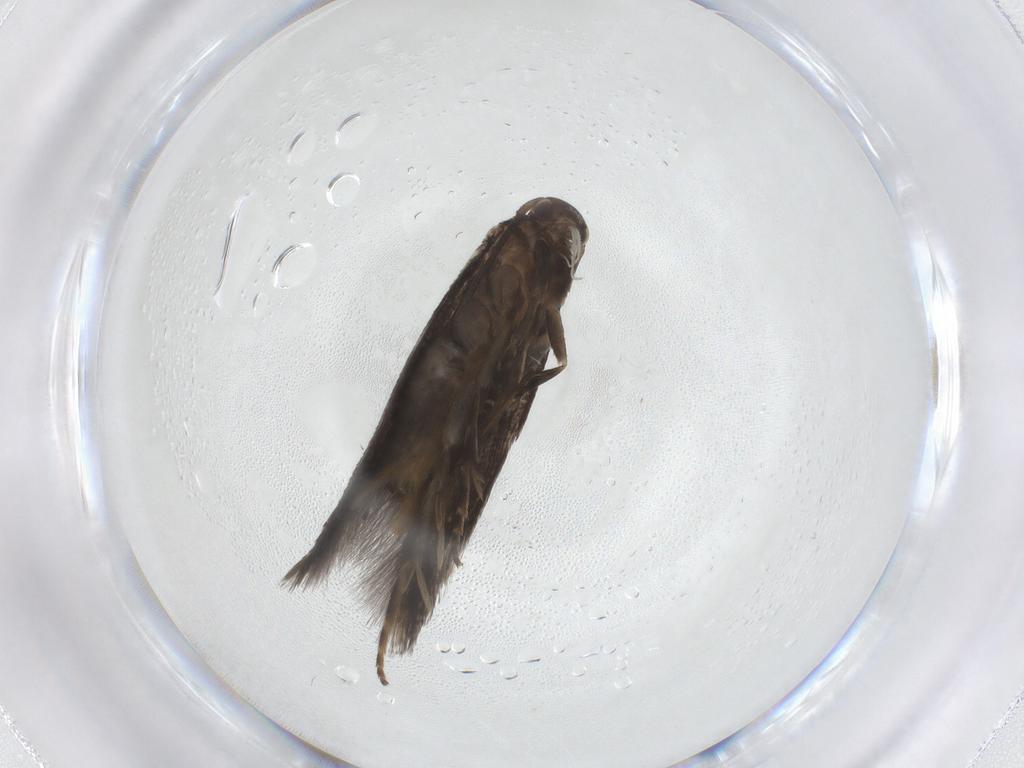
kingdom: Animalia
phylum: Arthropoda
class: Insecta
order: Lepidoptera
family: Elachistidae
